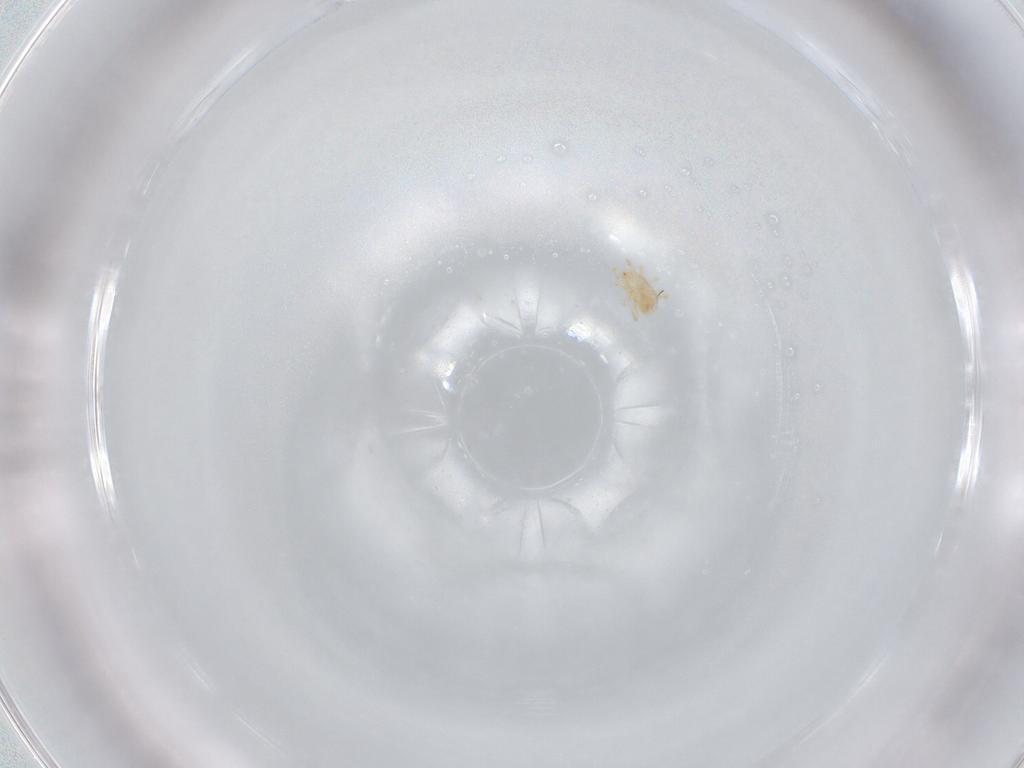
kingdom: Animalia
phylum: Arthropoda
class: Arachnida
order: Mesostigmata
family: Blattisociidae
